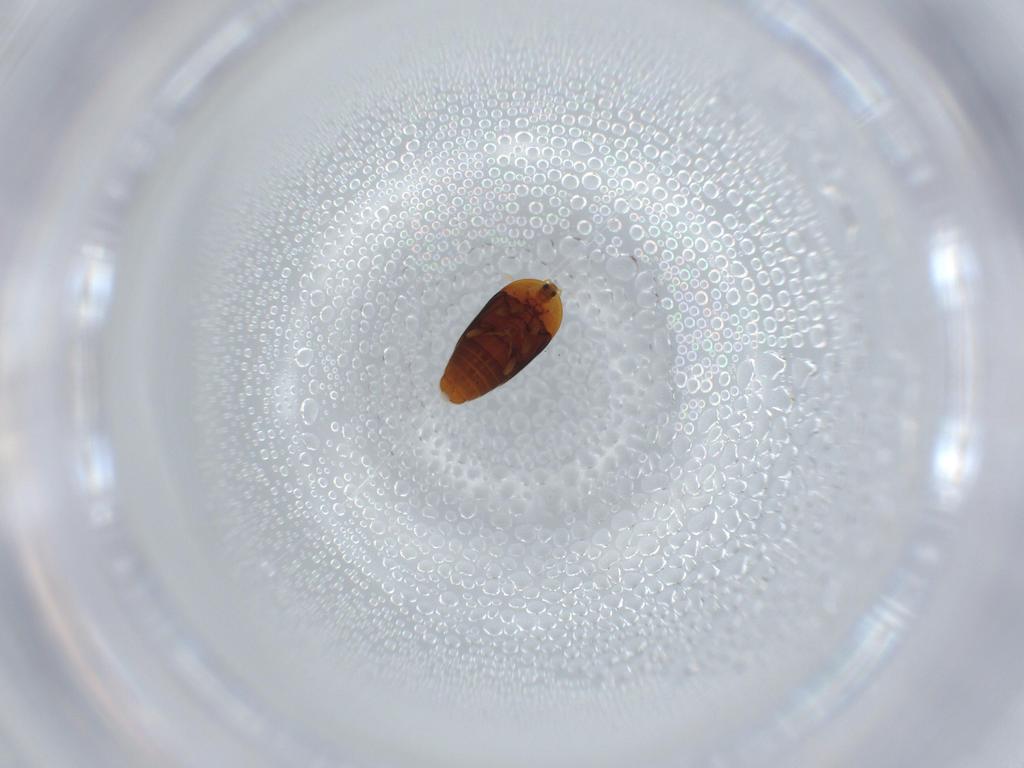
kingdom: Animalia
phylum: Arthropoda
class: Insecta
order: Coleoptera
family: Corylophidae
